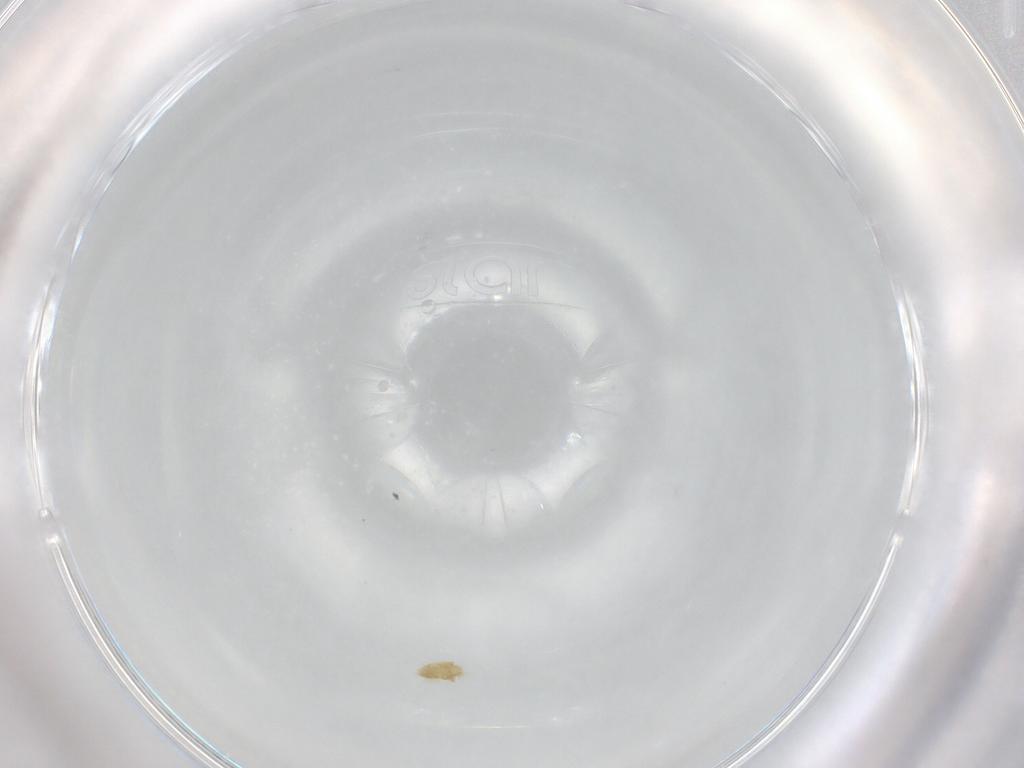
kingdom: Animalia
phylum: Arthropoda
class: Arachnida
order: Trombidiformes
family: Eupodidae
